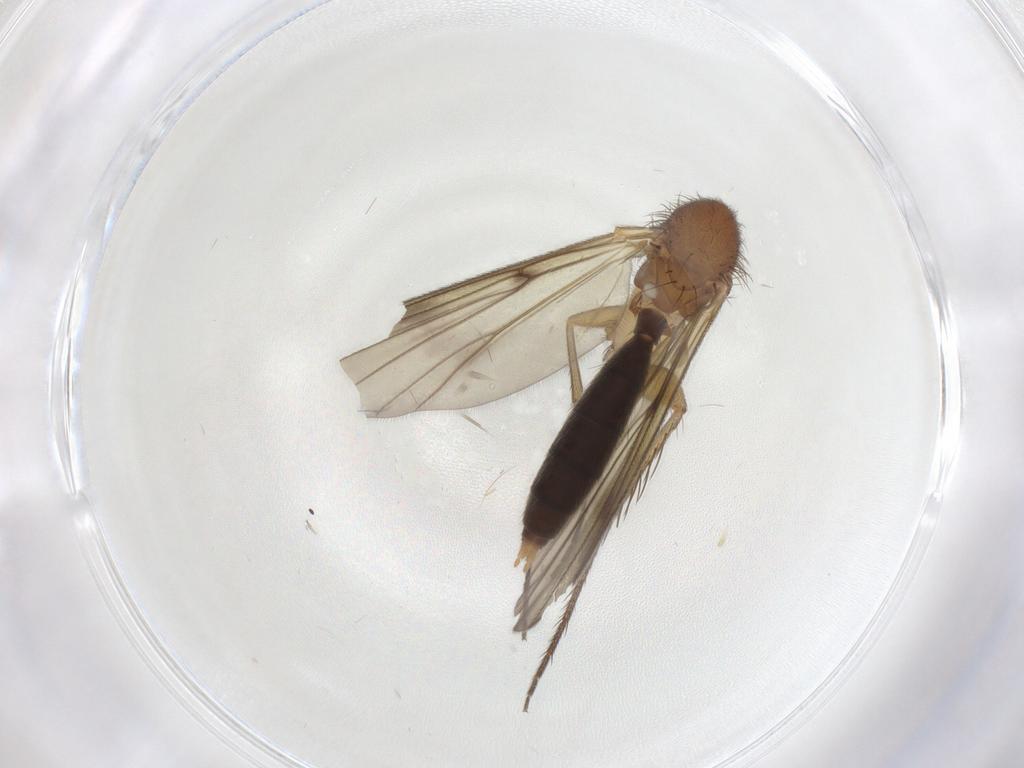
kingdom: Animalia
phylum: Arthropoda
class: Insecta
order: Diptera
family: Mycetophilidae
